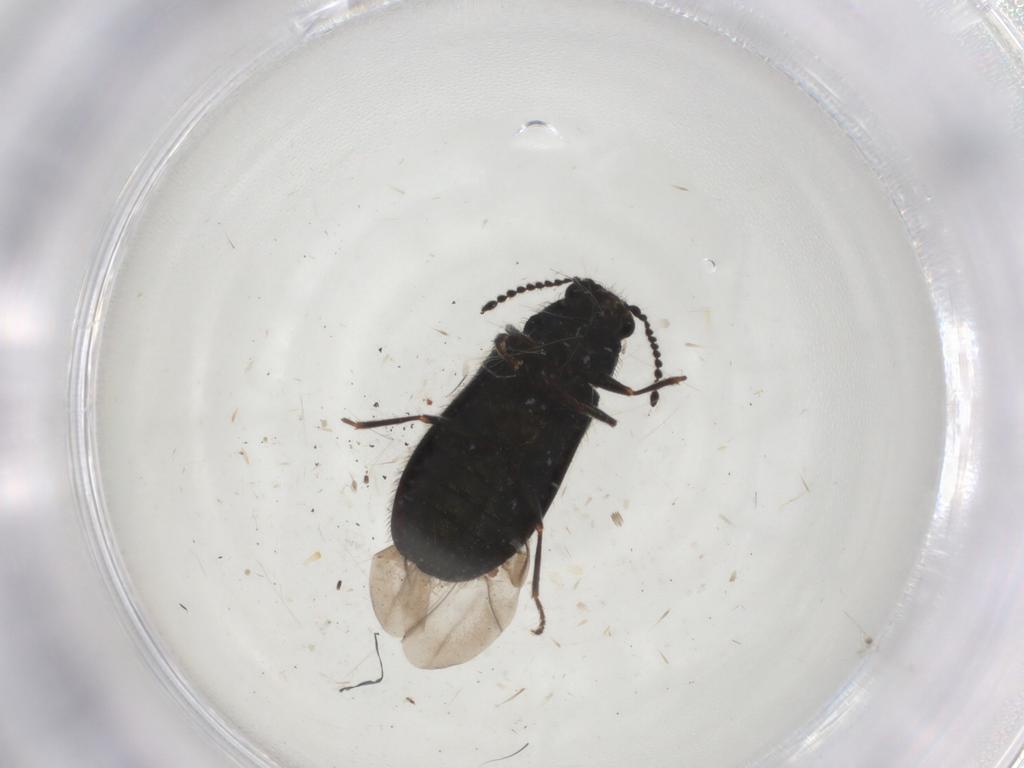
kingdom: Animalia
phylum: Arthropoda
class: Insecta
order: Coleoptera
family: Melyridae
